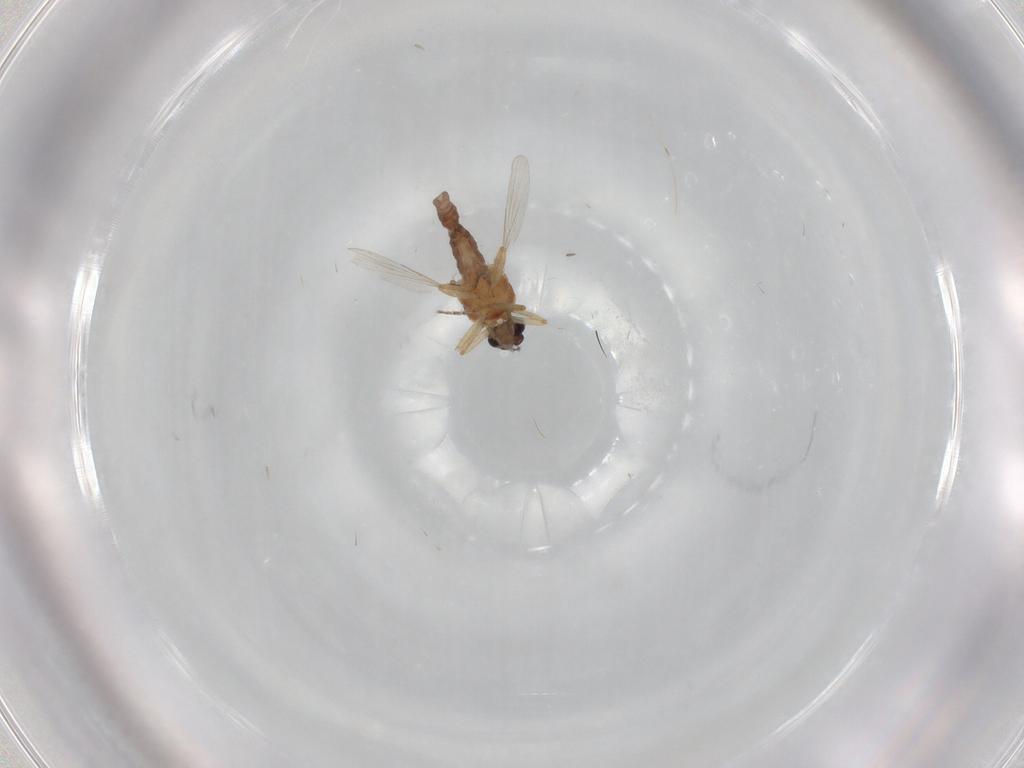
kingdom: Animalia
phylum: Arthropoda
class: Insecta
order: Diptera
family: Ceratopogonidae
